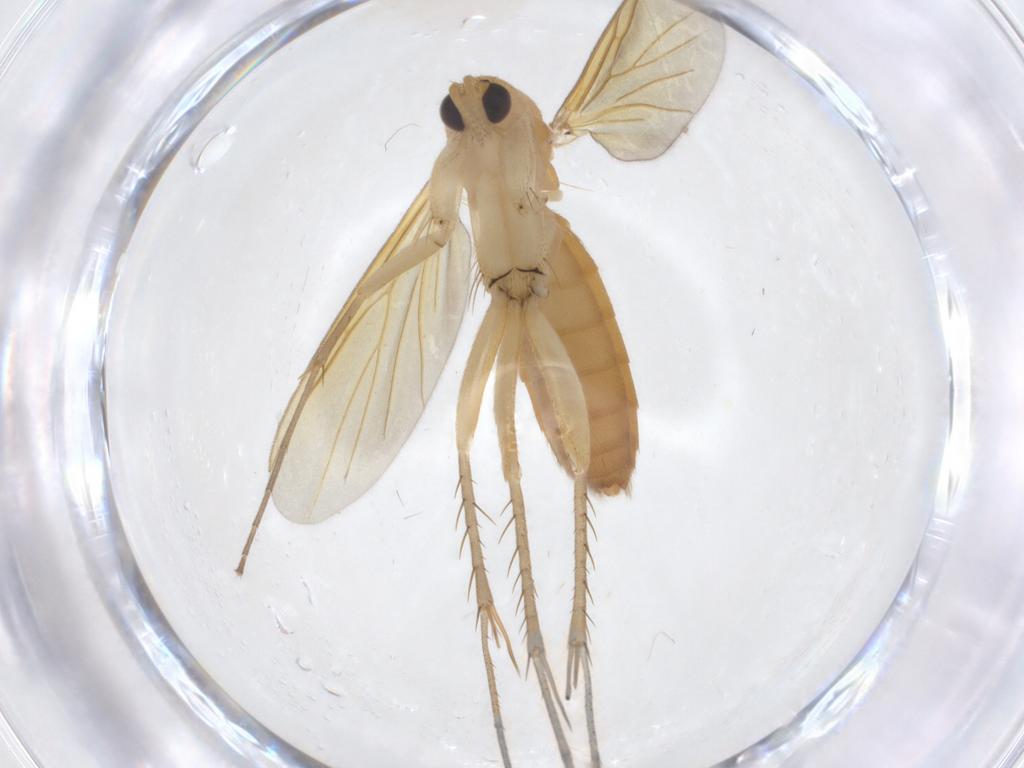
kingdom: Animalia
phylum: Arthropoda
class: Insecta
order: Diptera
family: Mycetophilidae
